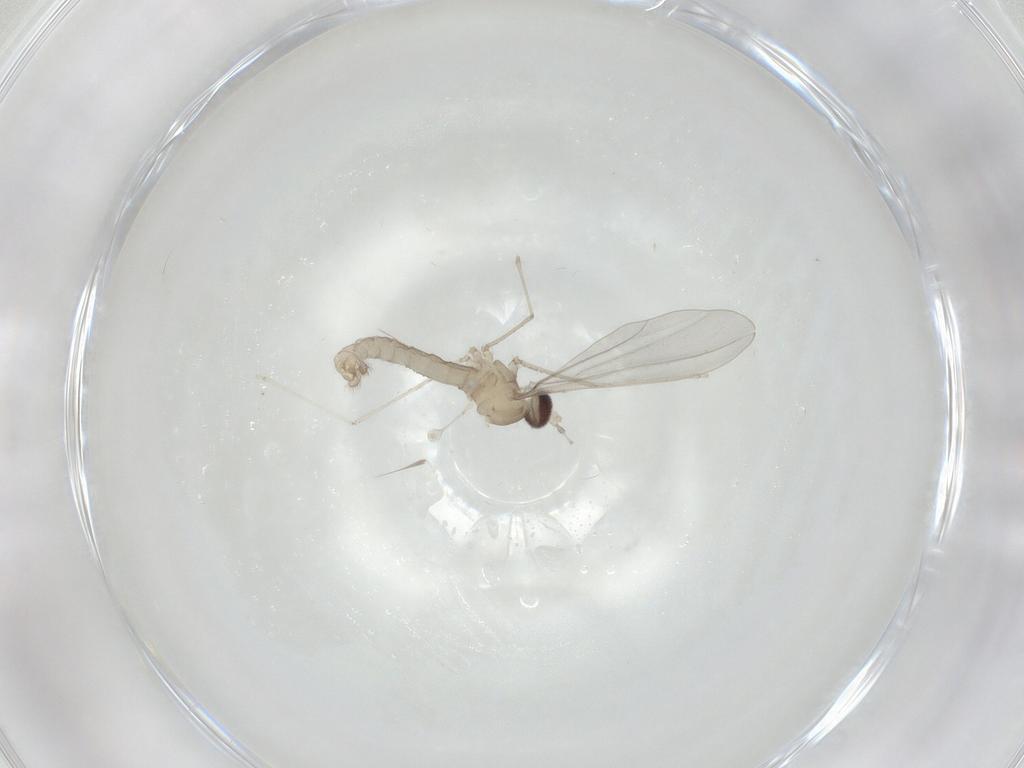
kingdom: Animalia
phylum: Arthropoda
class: Insecta
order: Diptera
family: Cecidomyiidae
